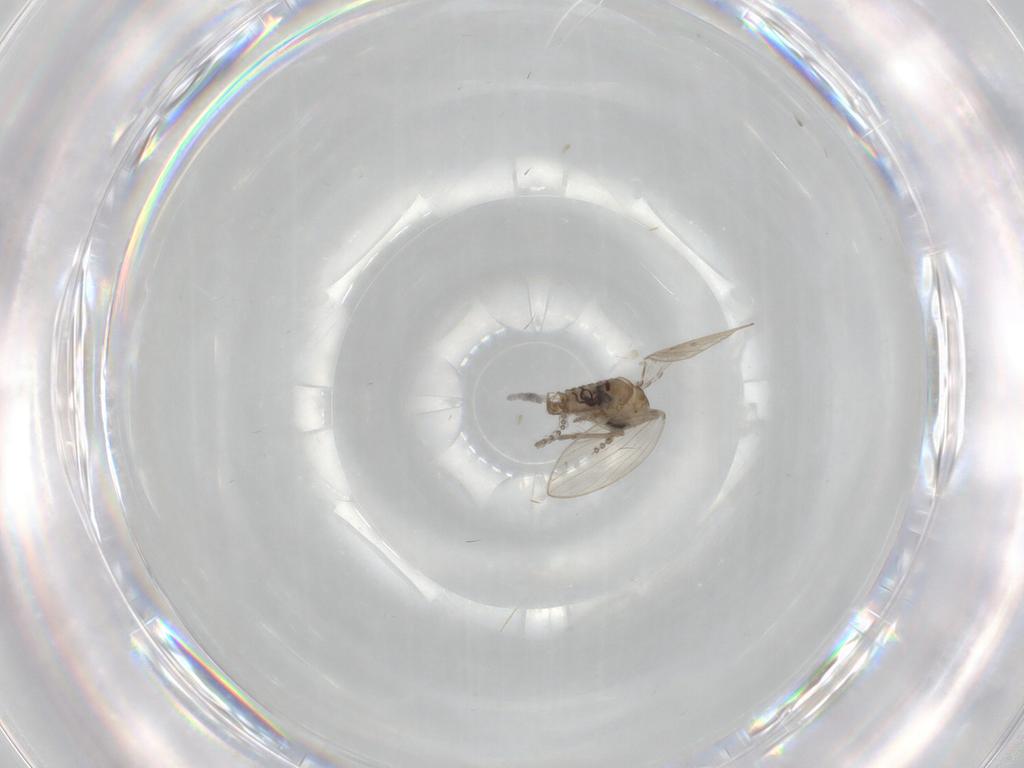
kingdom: Animalia
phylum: Arthropoda
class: Insecta
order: Diptera
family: Psychodidae
